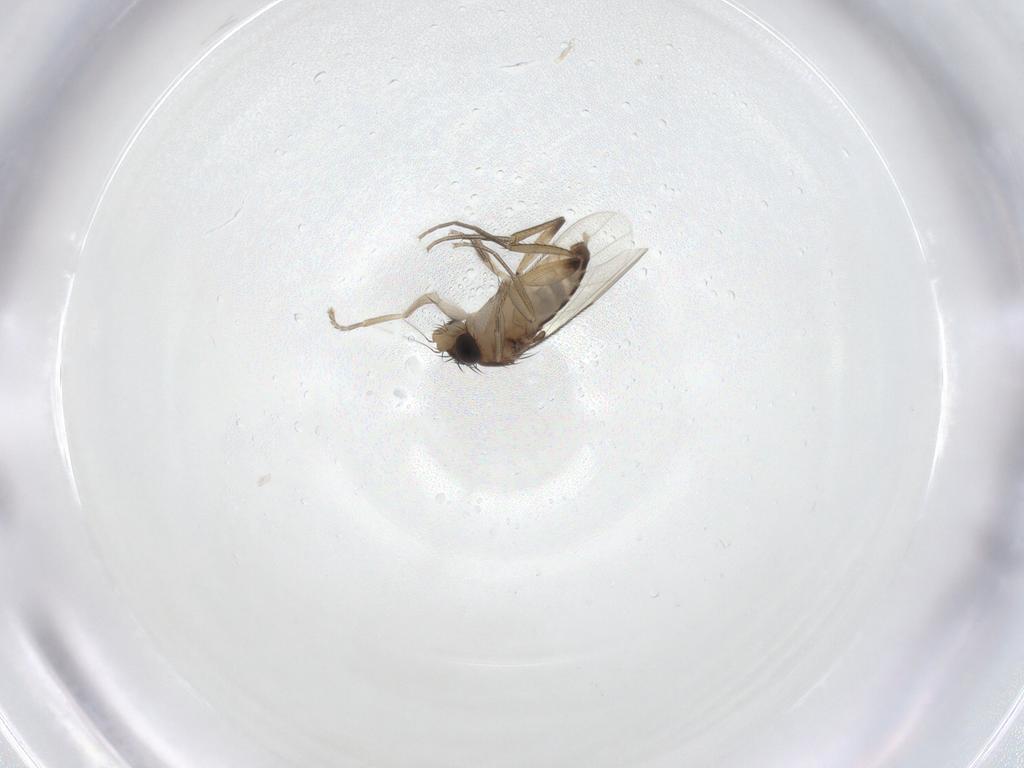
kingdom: Animalia
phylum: Arthropoda
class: Insecta
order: Diptera
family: Phoridae
